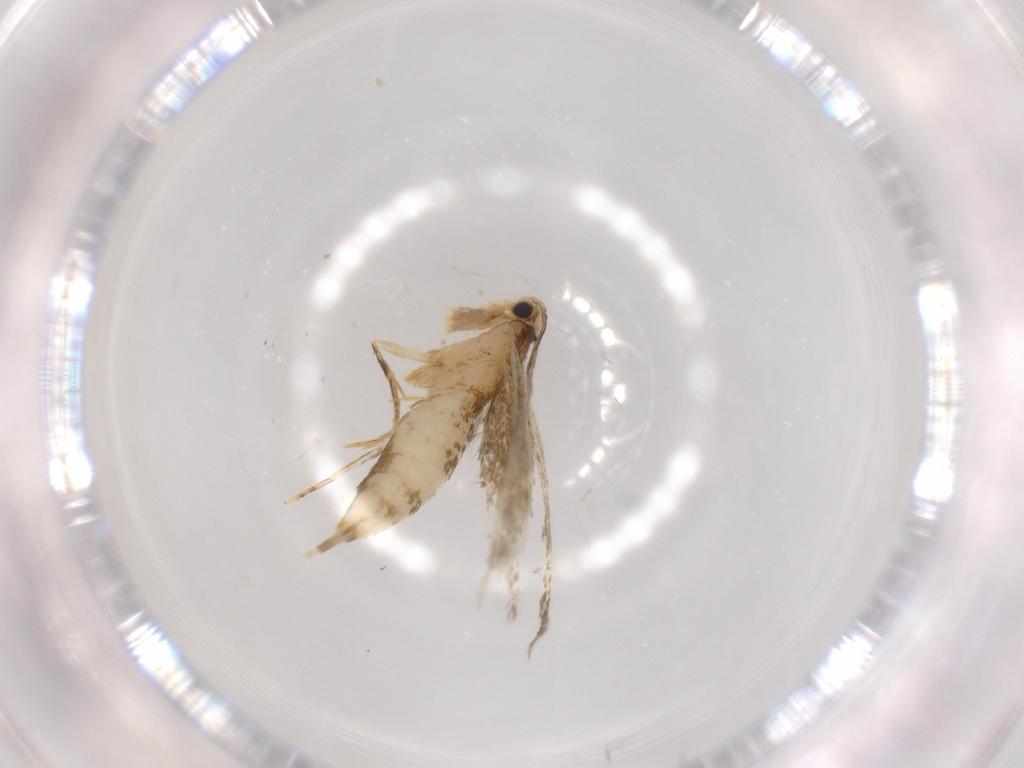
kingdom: Animalia
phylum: Arthropoda
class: Insecta
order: Lepidoptera
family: Tineidae
